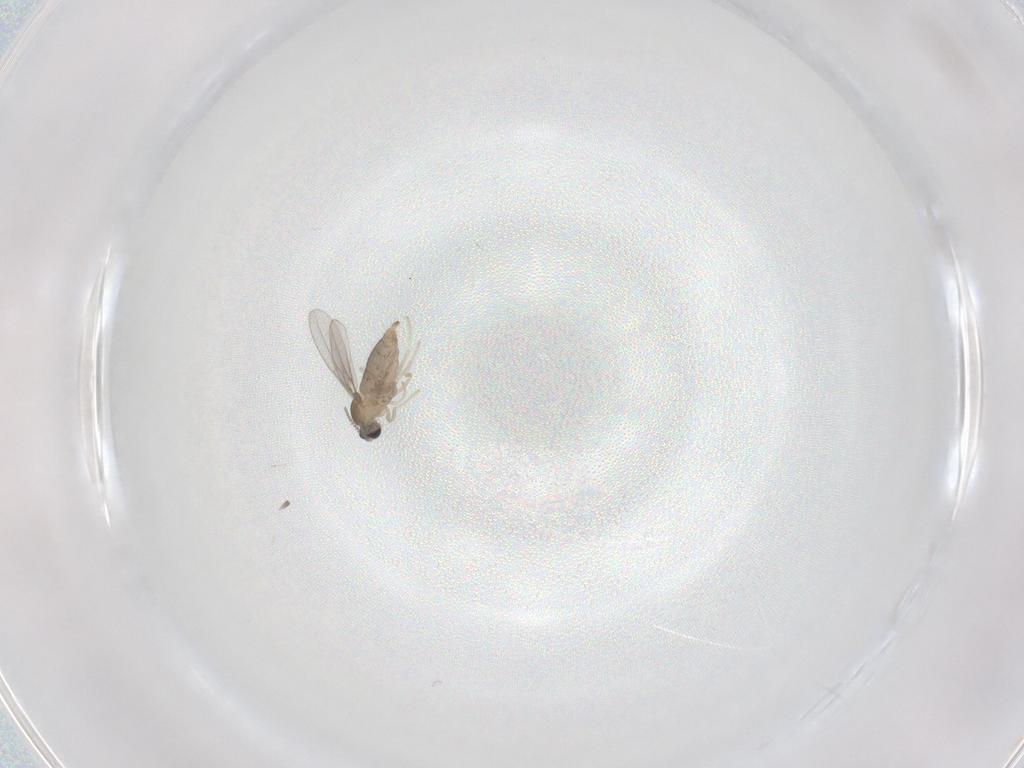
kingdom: Animalia
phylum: Arthropoda
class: Insecta
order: Diptera
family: Cecidomyiidae
